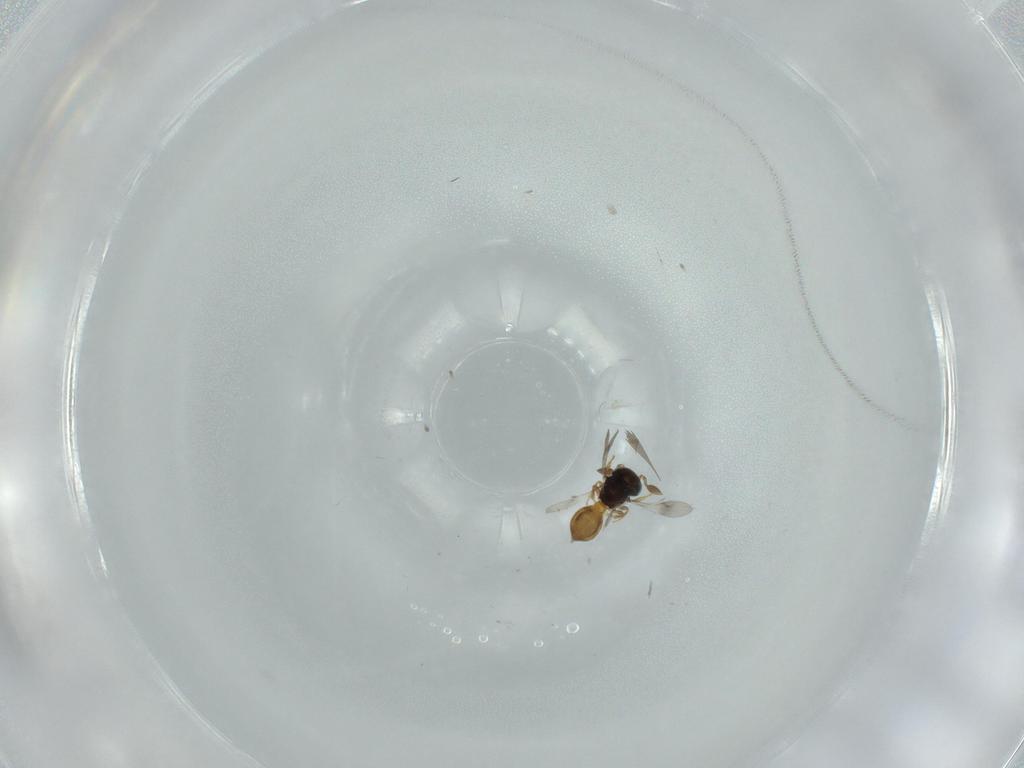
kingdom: Animalia
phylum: Arthropoda
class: Insecta
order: Hymenoptera
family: Scelionidae
